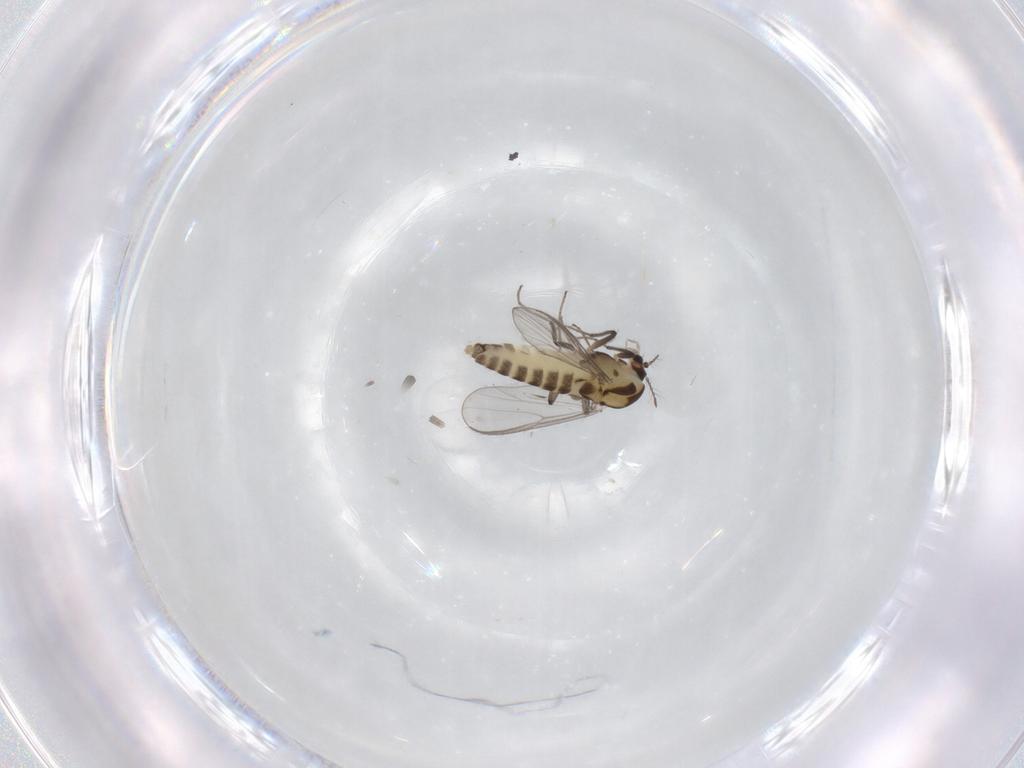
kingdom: Animalia
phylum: Arthropoda
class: Insecta
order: Diptera
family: Chironomidae
